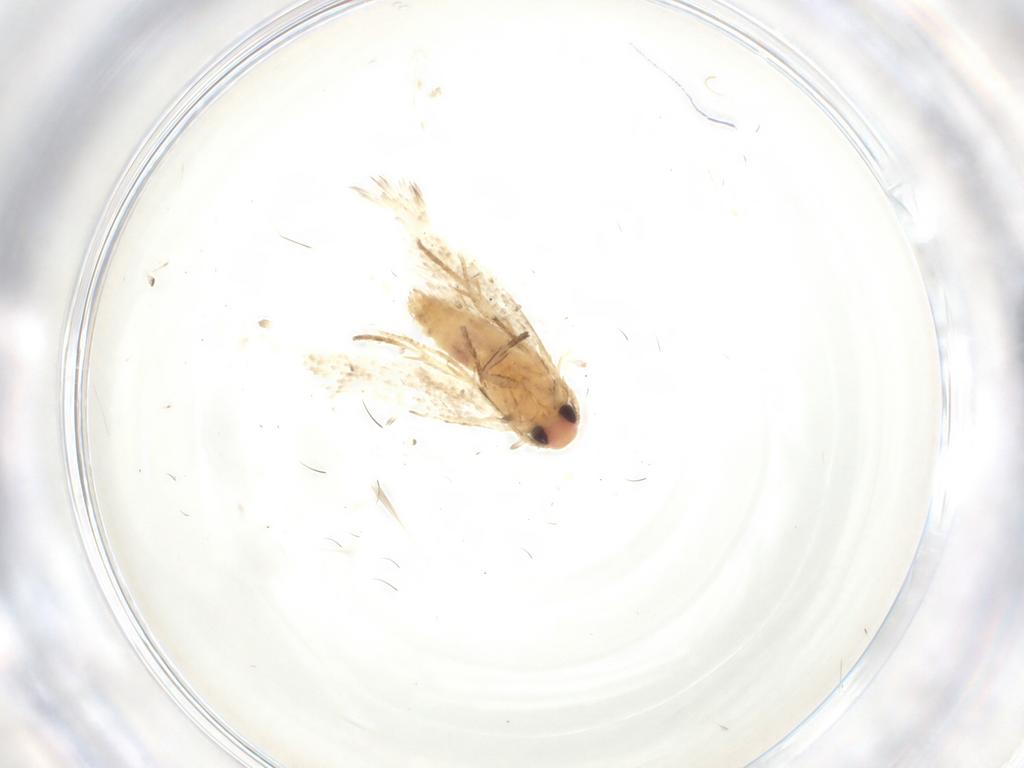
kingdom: Animalia
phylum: Arthropoda
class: Insecta
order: Lepidoptera
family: Cosmopterigidae
